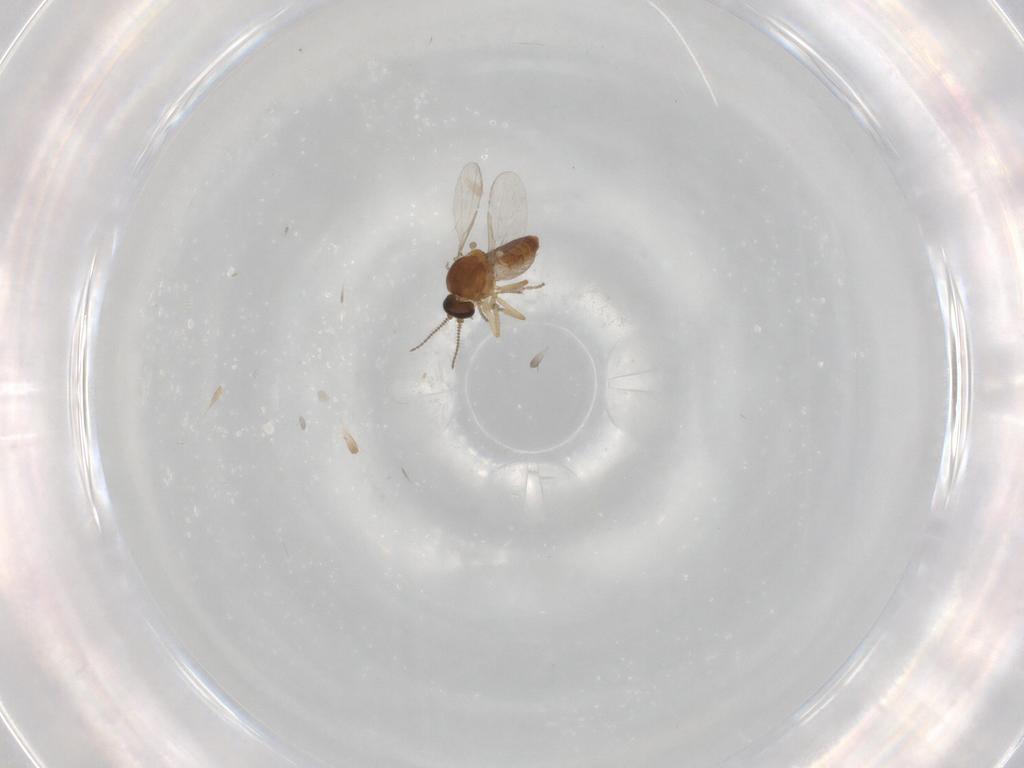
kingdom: Animalia
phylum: Arthropoda
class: Insecta
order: Diptera
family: Ceratopogonidae
